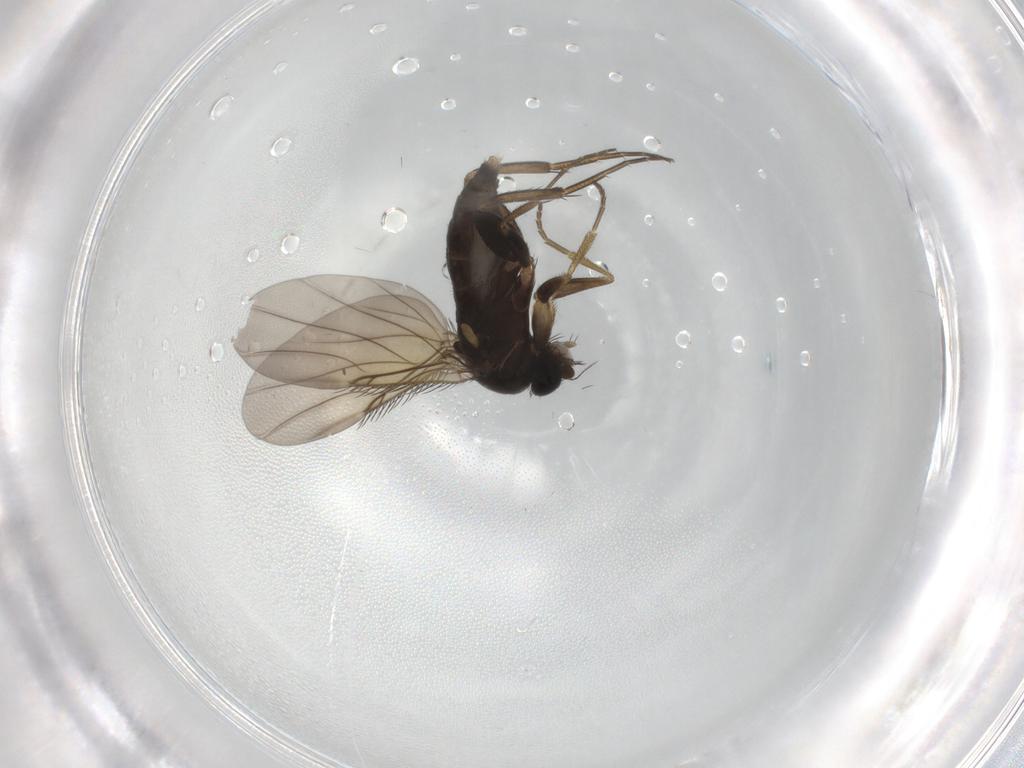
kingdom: Animalia
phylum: Arthropoda
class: Insecta
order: Diptera
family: Phoridae
